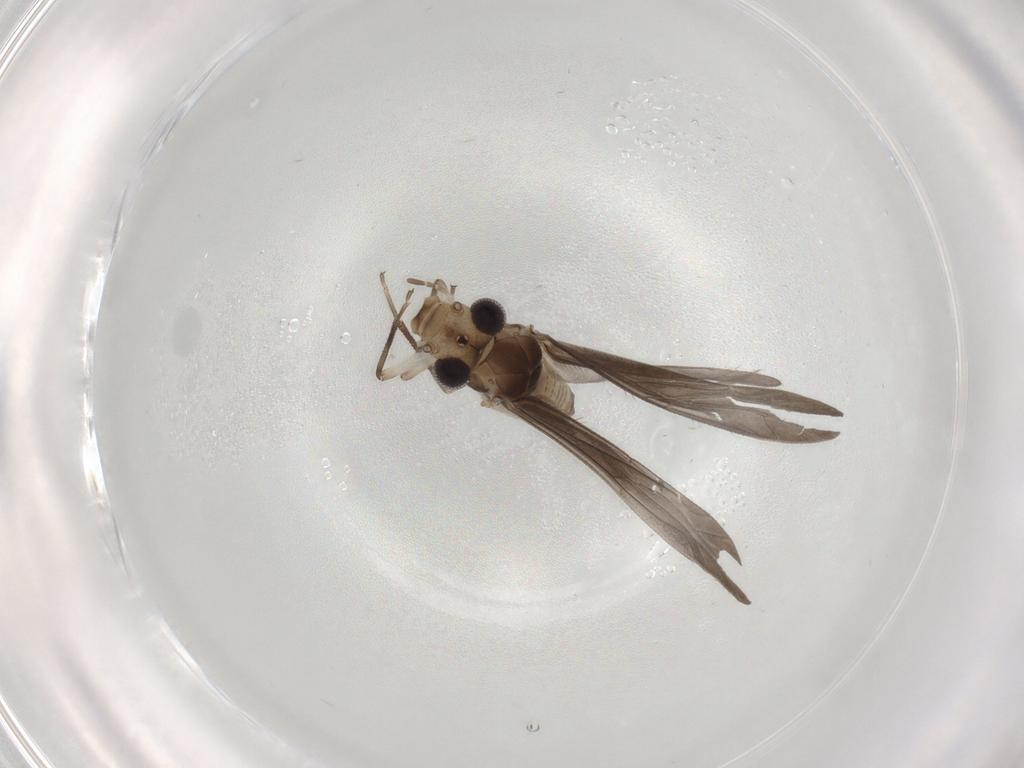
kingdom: Animalia
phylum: Arthropoda
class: Insecta
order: Psocodea
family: Caeciliusidae
